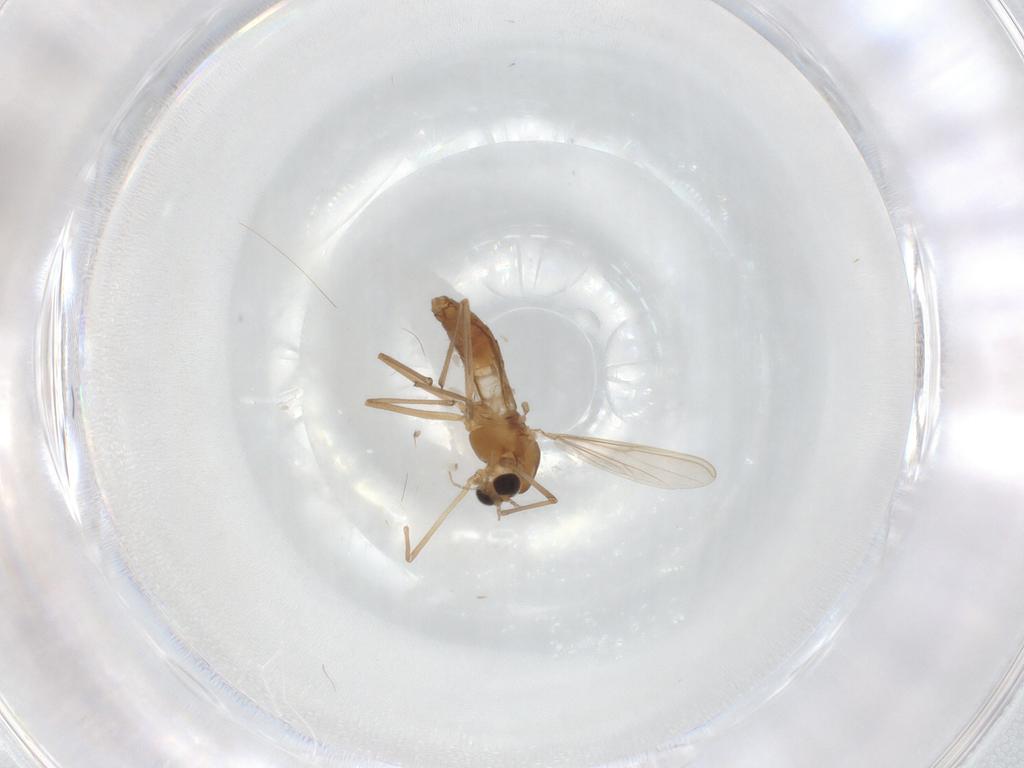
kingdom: Animalia
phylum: Arthropoda
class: Insecta
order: Diptera
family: Chironomidae
